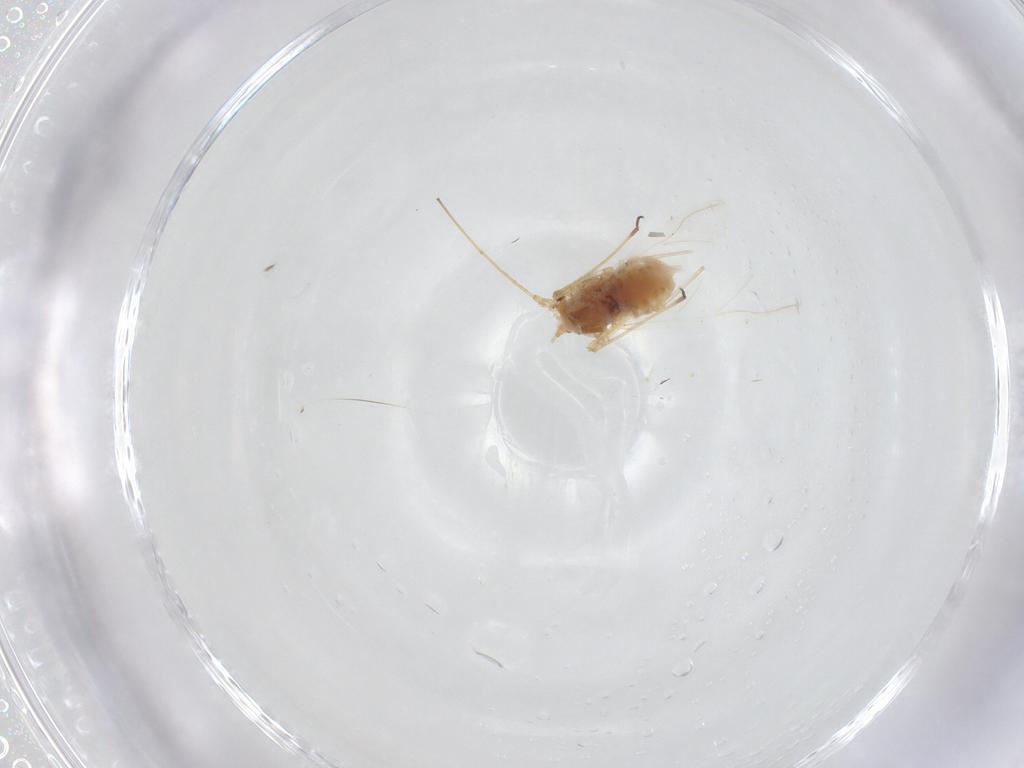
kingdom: Animalia
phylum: Arthropoda
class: Insecta
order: Hemiptera
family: Aphididae
